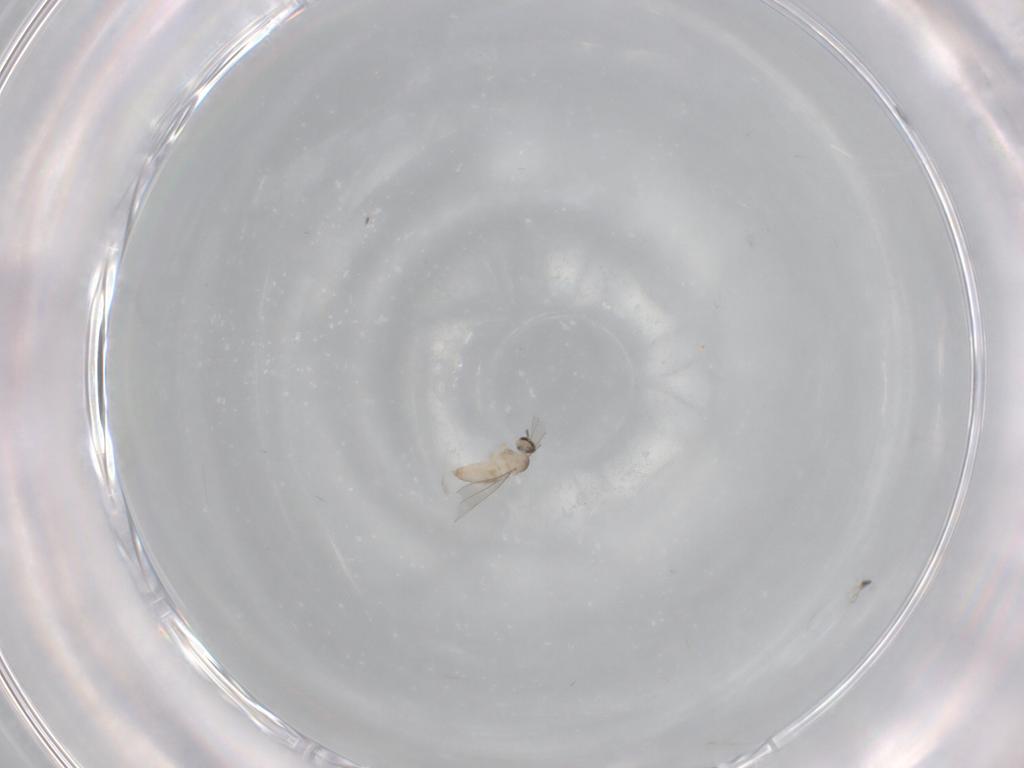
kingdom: Animalia
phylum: Arthropoda
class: Insecta
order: Diptera
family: Cecidomyiidae
